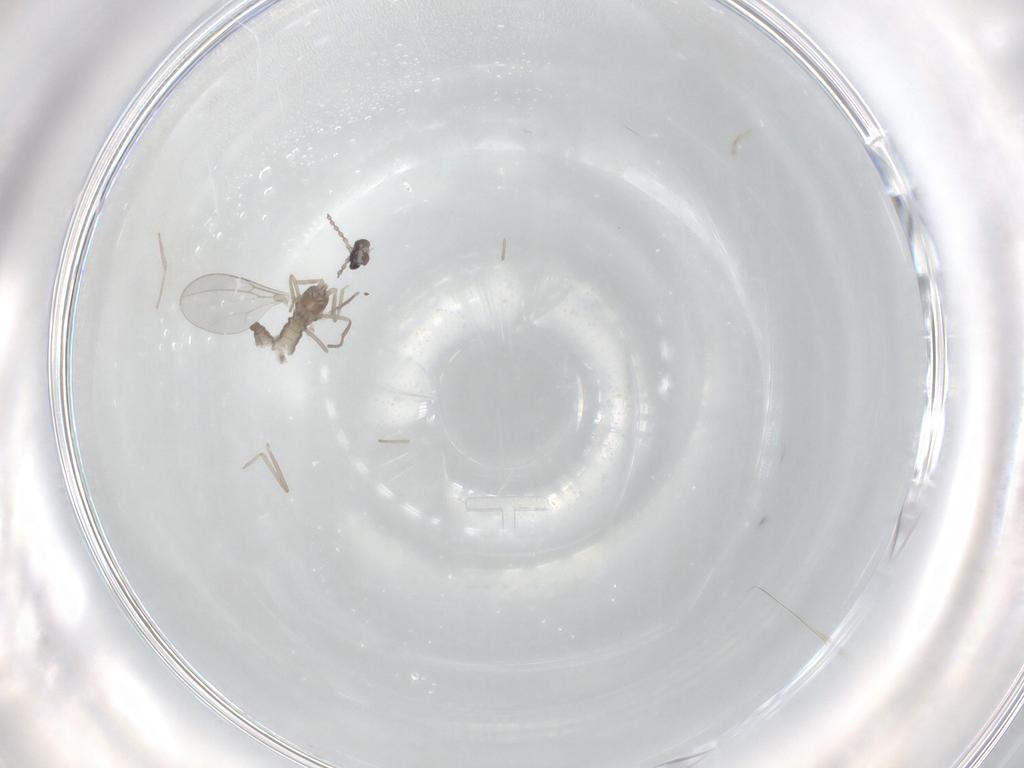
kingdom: Animalia
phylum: Arthropoda
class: Insecta
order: Diptera
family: Cecidomyiidae
